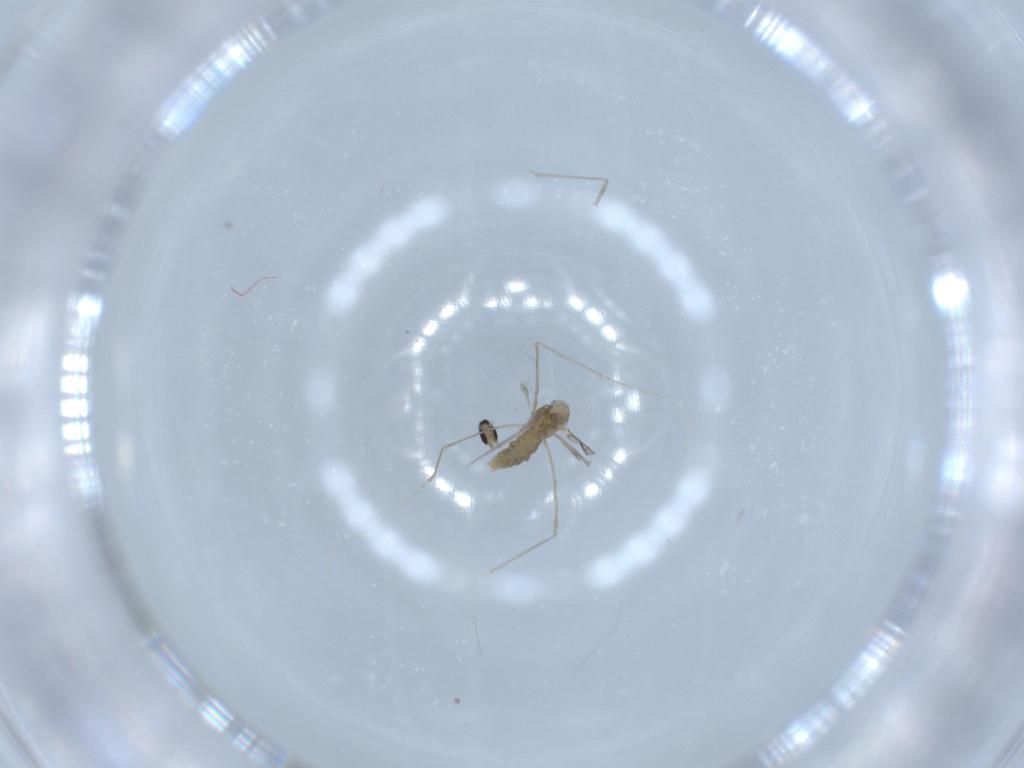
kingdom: Animalia
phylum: Arthropoda
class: Insecta
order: Diptera
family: Cecidomyiidae
